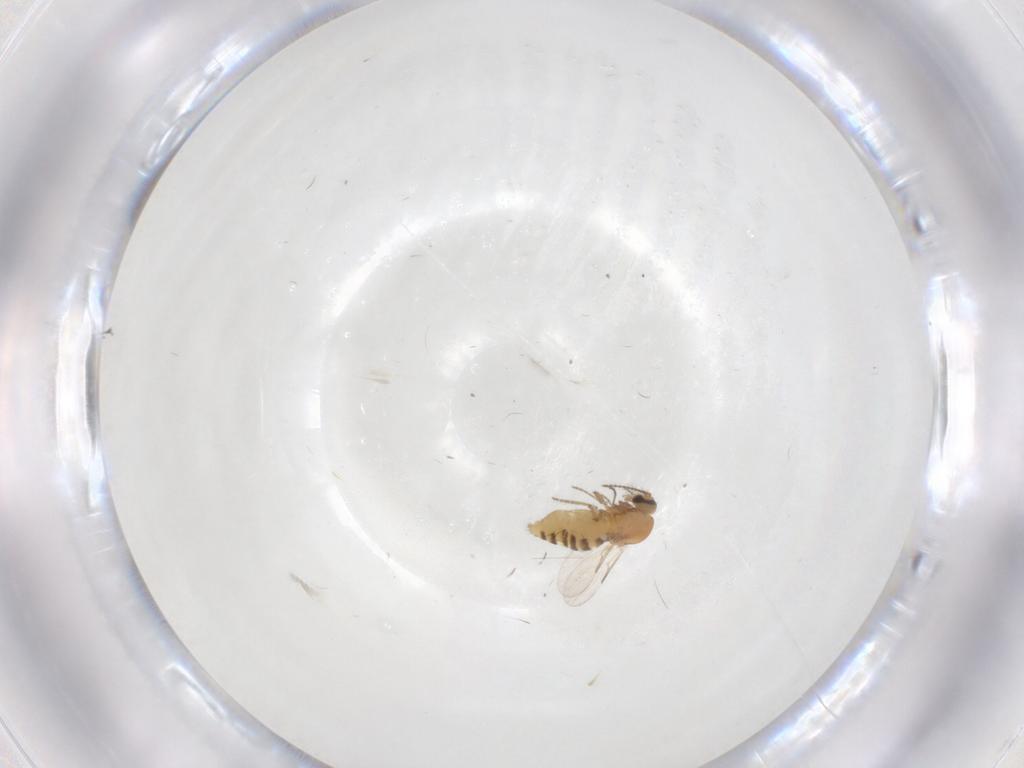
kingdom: Animalia
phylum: Arthropoda
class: Insecta
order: Diptera
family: Ceratopogonidae
